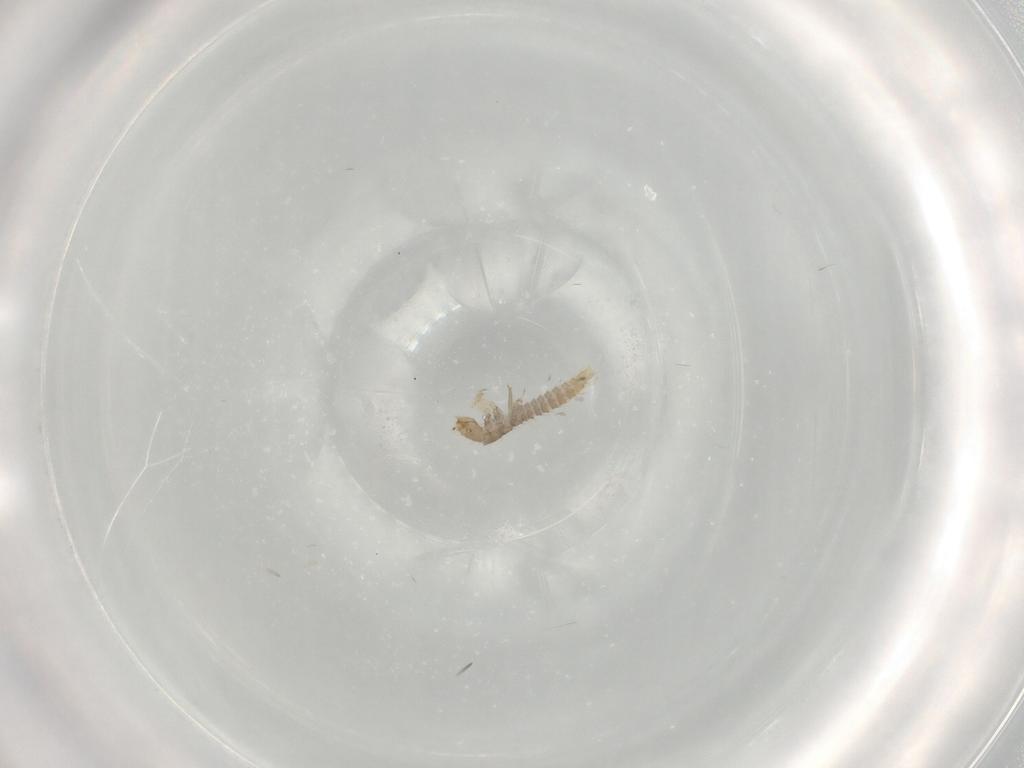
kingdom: Animalia
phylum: Arthropoda
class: Insecta
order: Coleoptera
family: Staphylinidae
